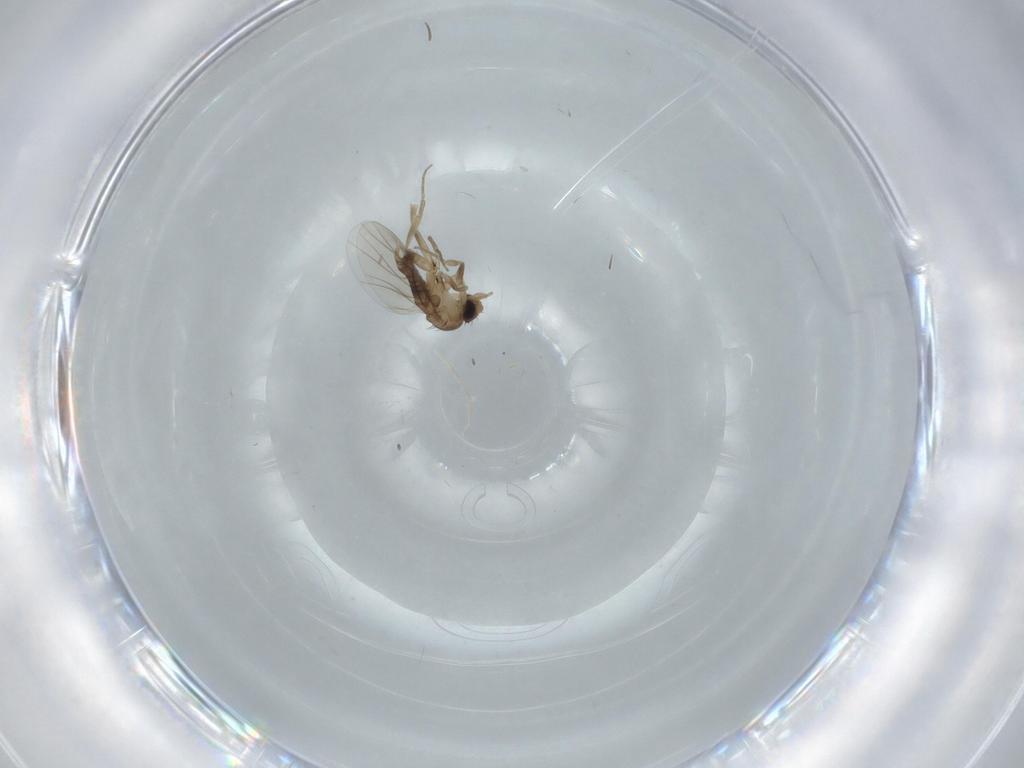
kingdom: Animalia
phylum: Arthropoda
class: Insecta
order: Diptera
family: Phoridae
